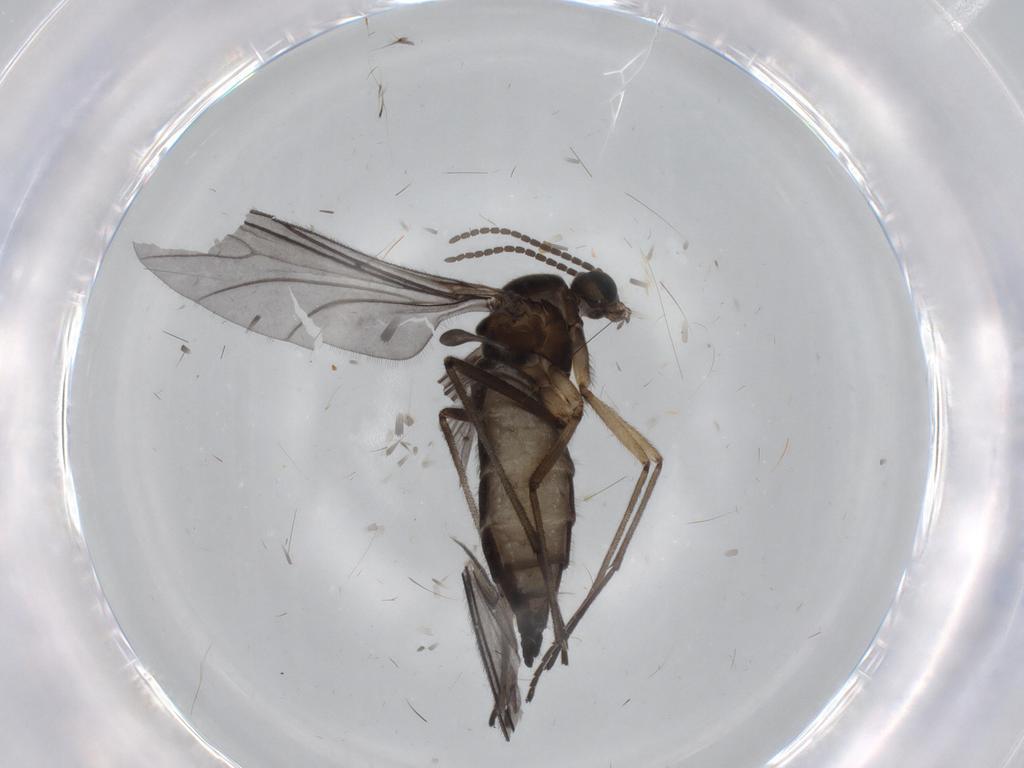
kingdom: Animalia
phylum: Arthropoda
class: Insecta
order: Diptera
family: Sciaridae
